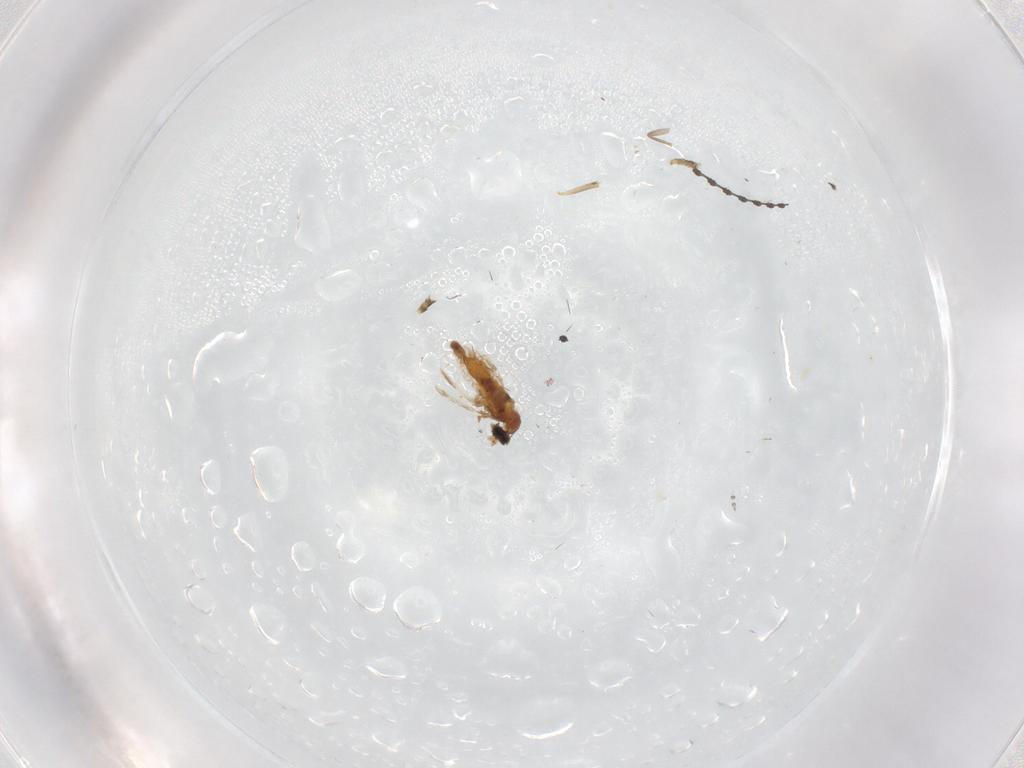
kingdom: Animalia
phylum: Arthropoda
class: Insecta
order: Diptera
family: Cecidomyiidae
